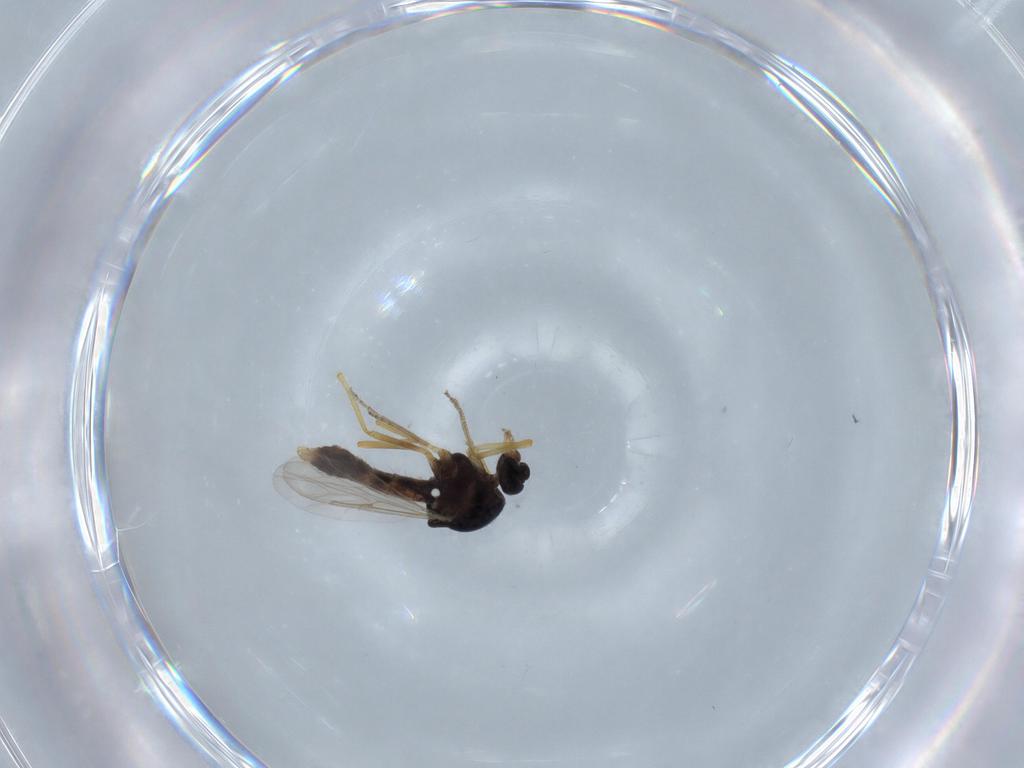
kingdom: Animalia
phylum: Arthropoda
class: Insecta
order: Diptera
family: Ceratopogonidae
